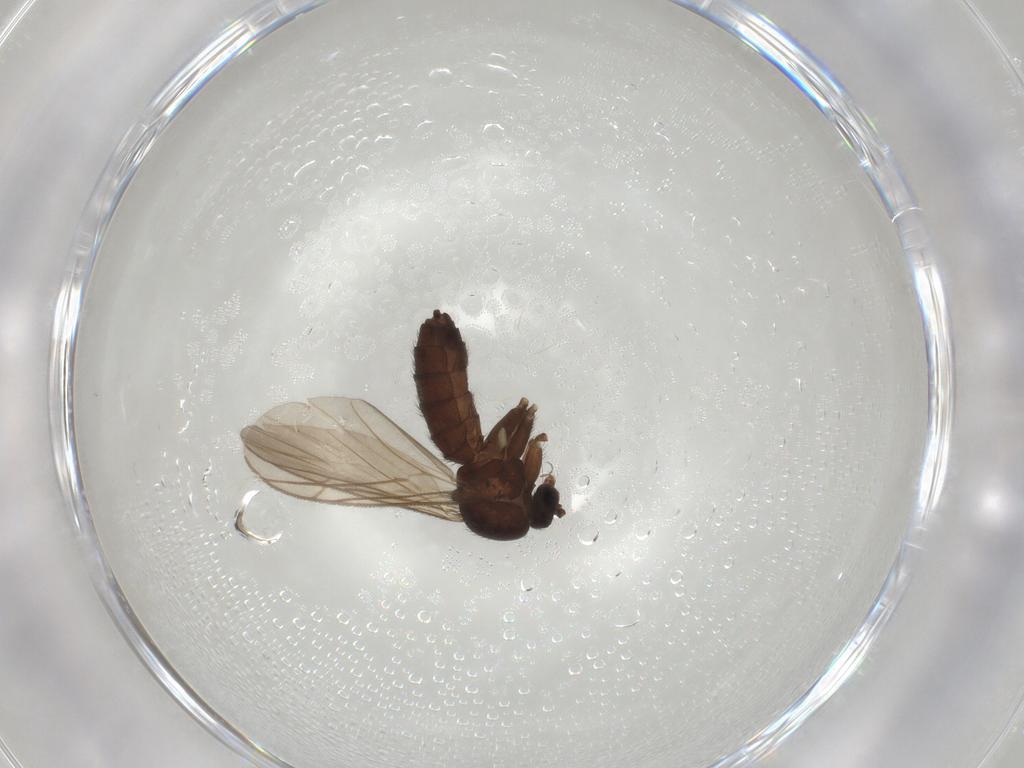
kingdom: Animalia
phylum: Arthropoda
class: Insecta
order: Diptera
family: Keroplatidae
